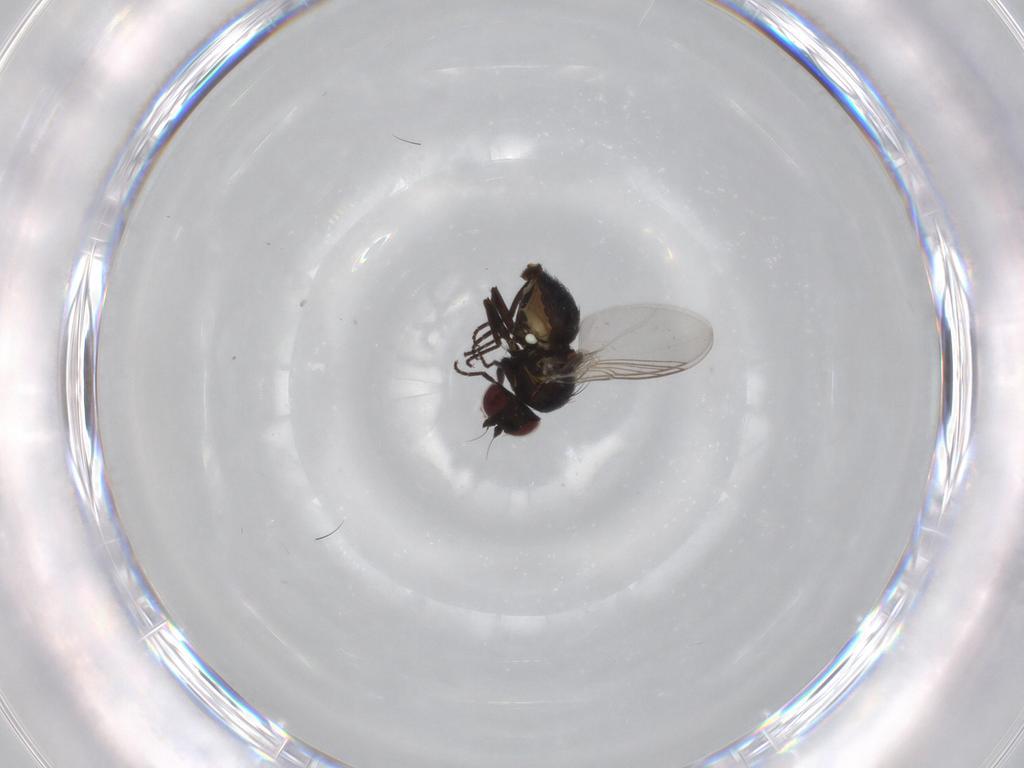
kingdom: Animalia
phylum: Arthropoda
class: Insecta
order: Diptera
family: Agromyzidae
